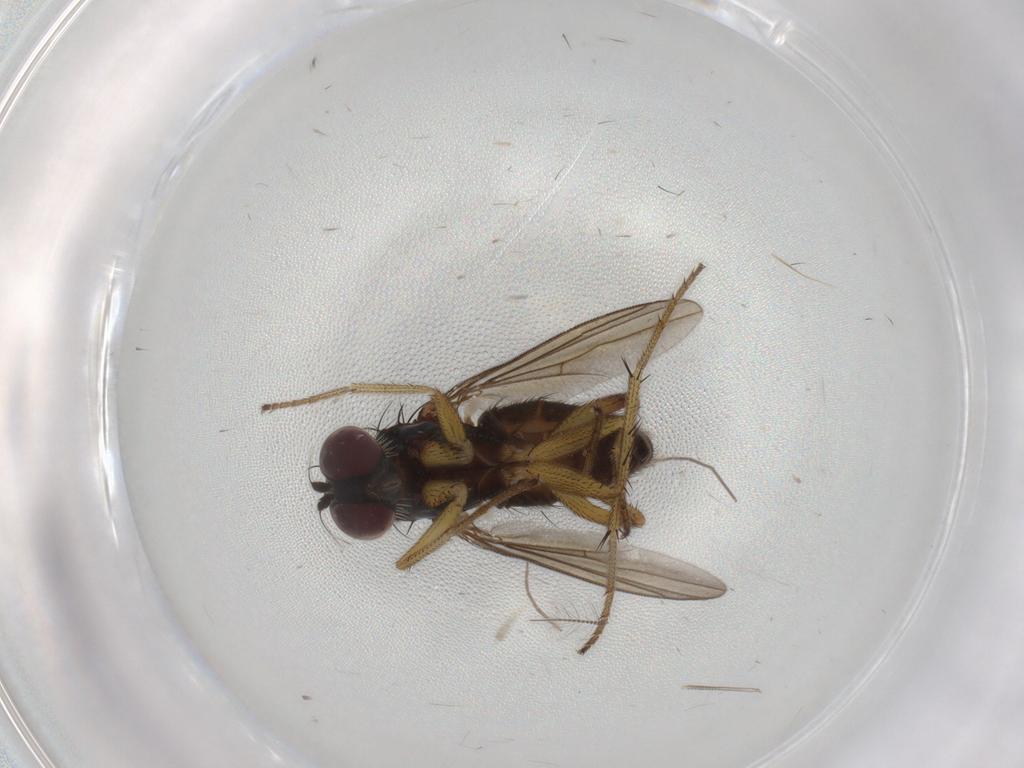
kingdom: Animalia
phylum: Arthropoda
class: Insecta
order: Diptera
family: Dolichopodidae
